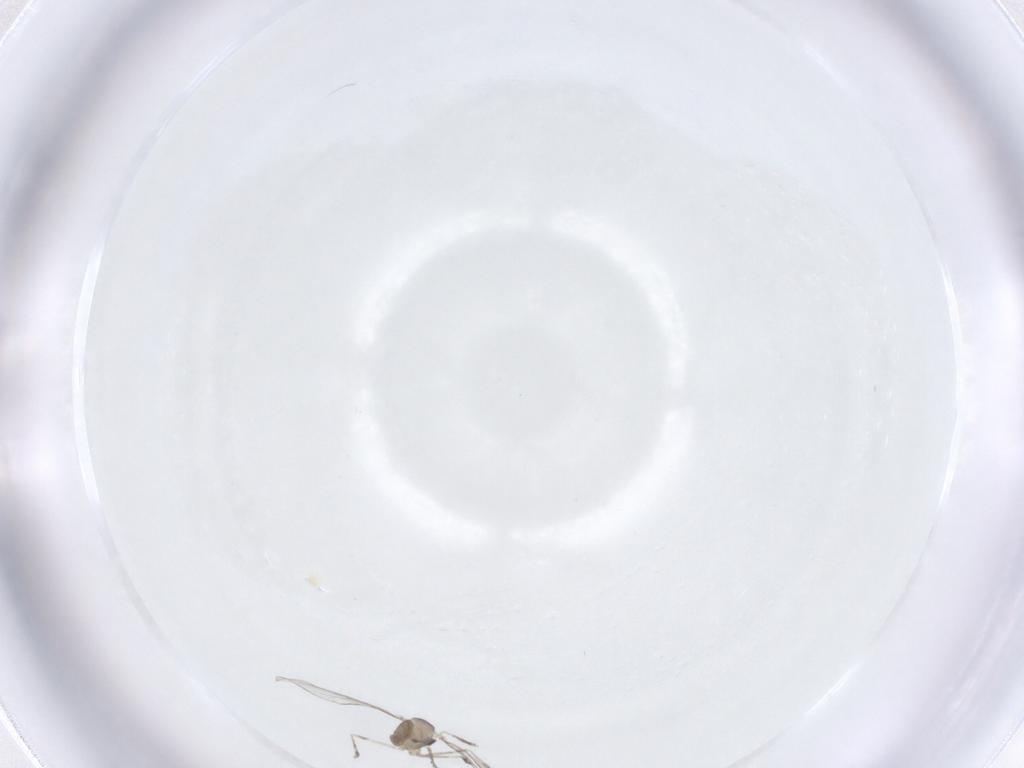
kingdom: Animalia
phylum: Arthropoda
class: Insecta
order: Diptera
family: Cecidomyiidae
